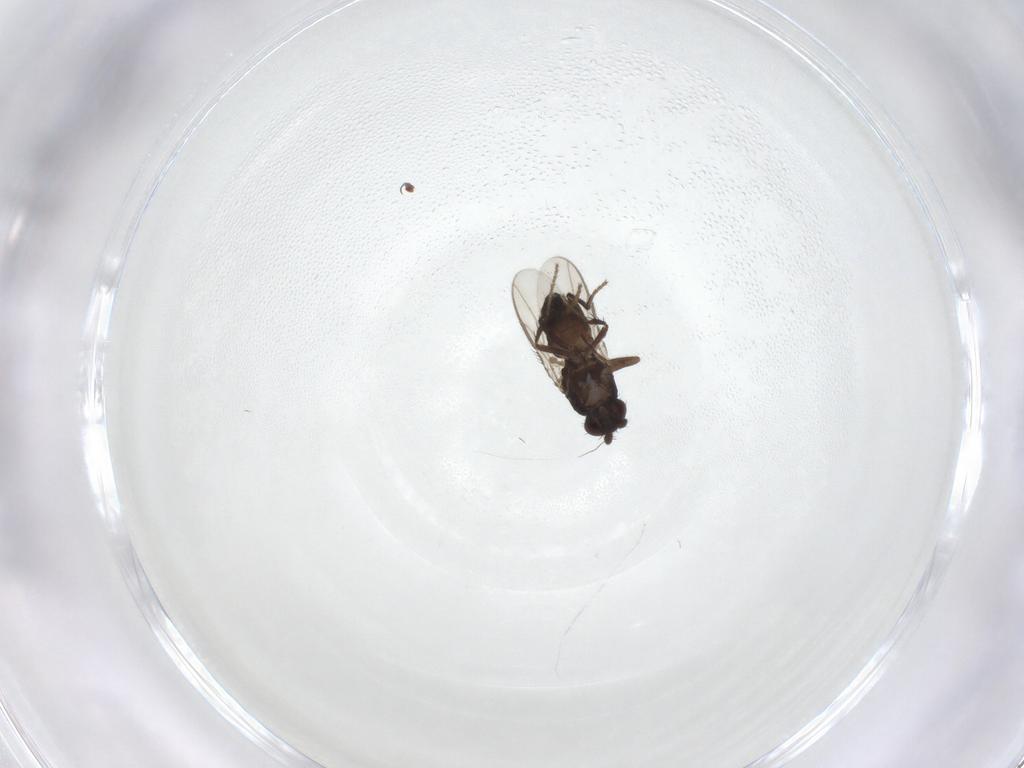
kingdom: Animalia
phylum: Arthropoda
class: Insecta
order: Diptera
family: Sphaeroceridae
